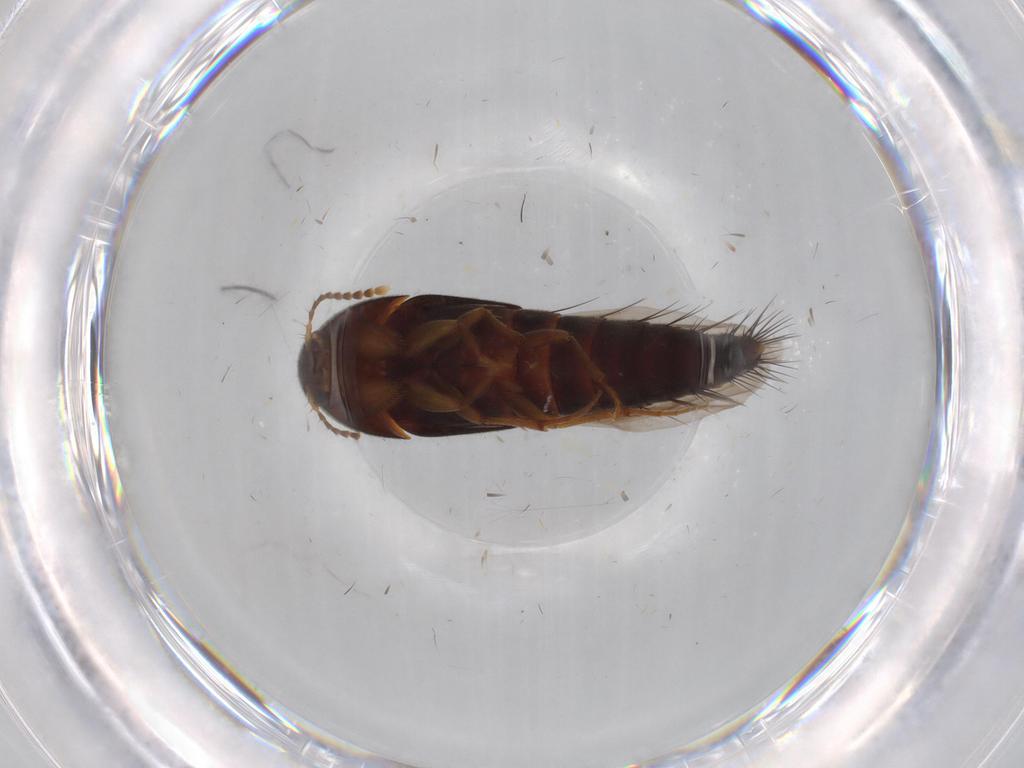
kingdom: Animalia
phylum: Arthropoda
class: Insecta
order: Coleoptera
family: Staphylinidae
